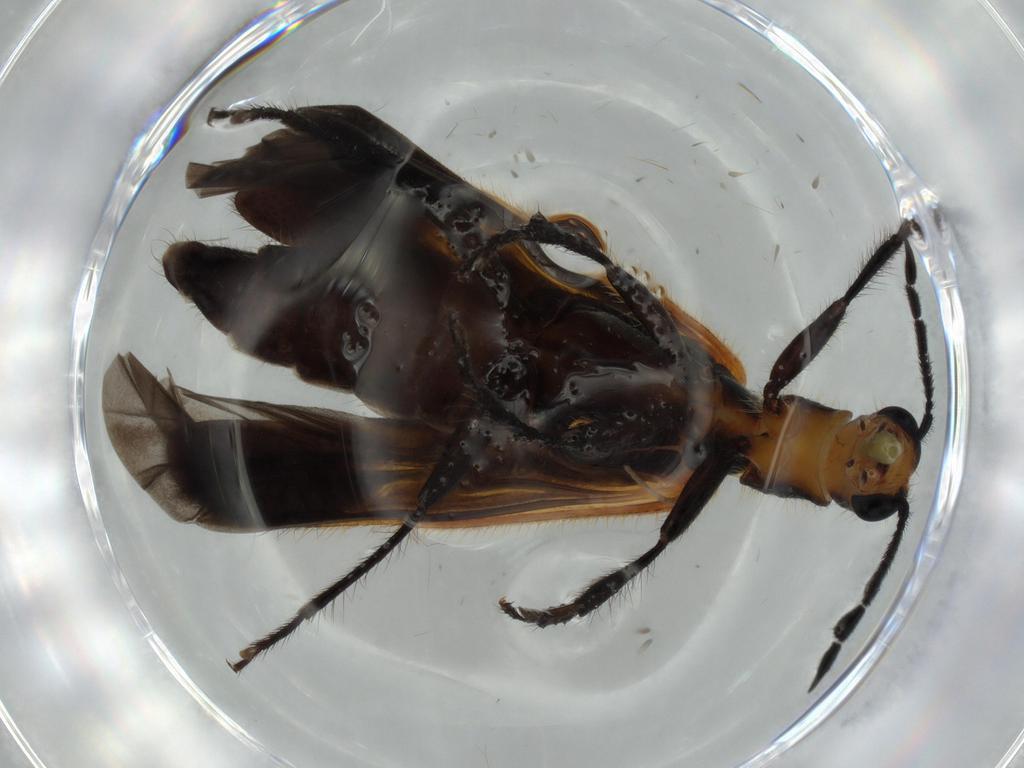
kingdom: Animalia
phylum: Arthropoda
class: Insecta
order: Coleoptera
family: Cleridae
